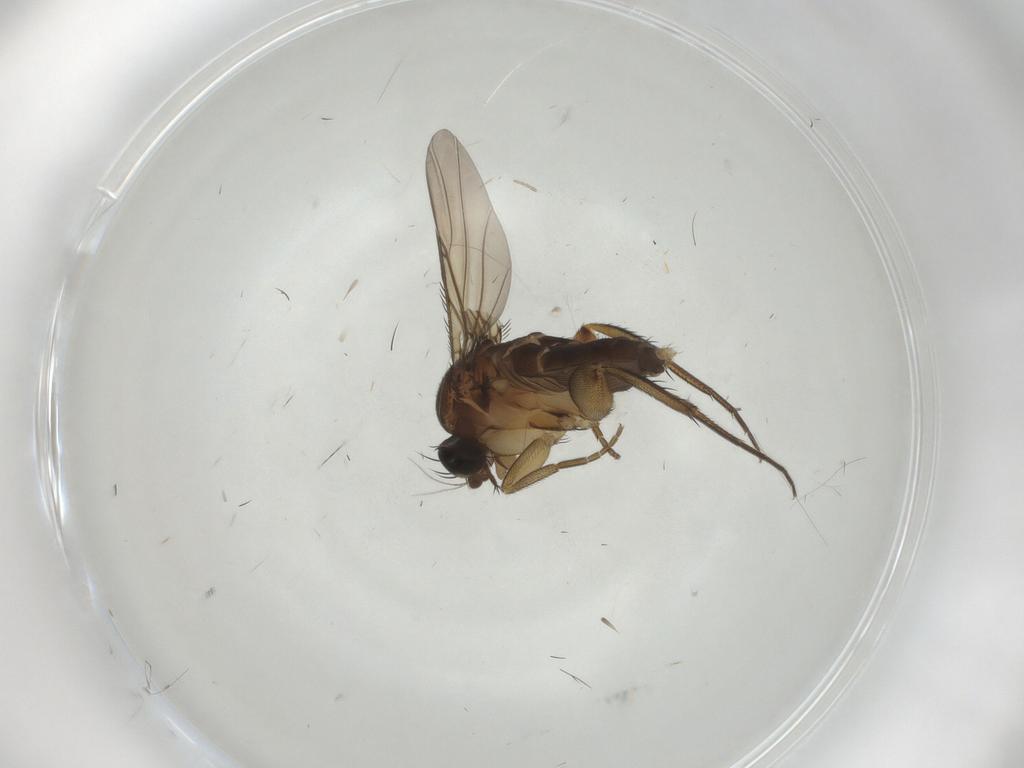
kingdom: Animalia
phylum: Arthropoda
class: Insecta
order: Diptera
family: Phoridae
